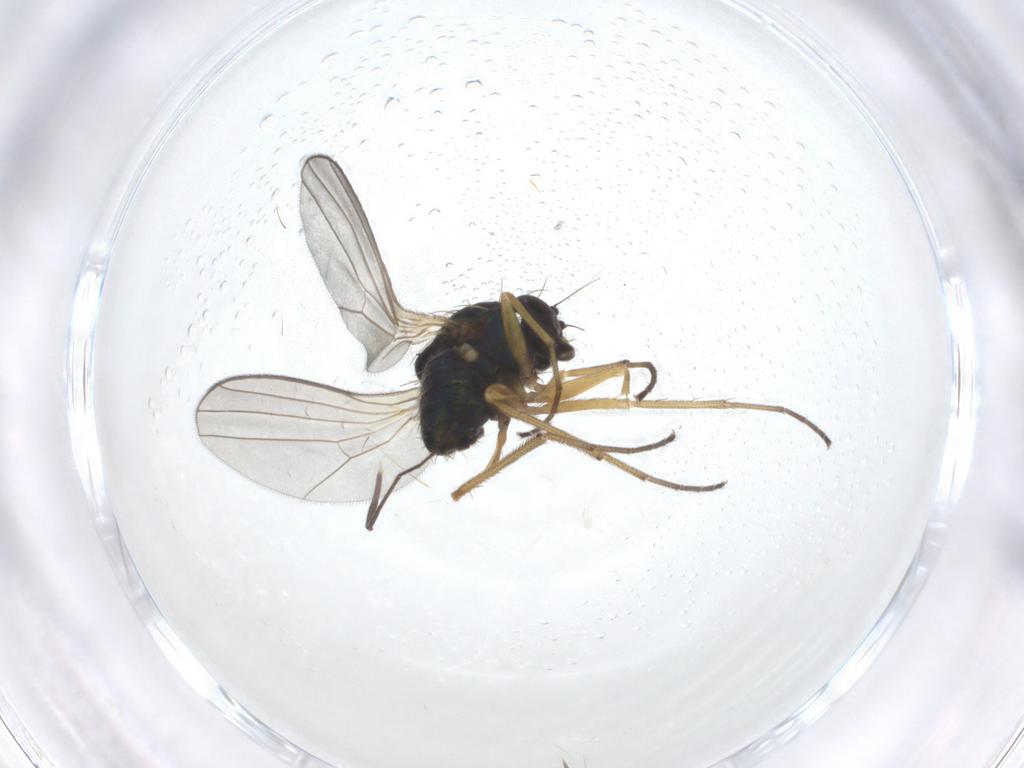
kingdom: Animalia
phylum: Arthropoda
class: Insecta
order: Diptera
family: Dolichopodidae
